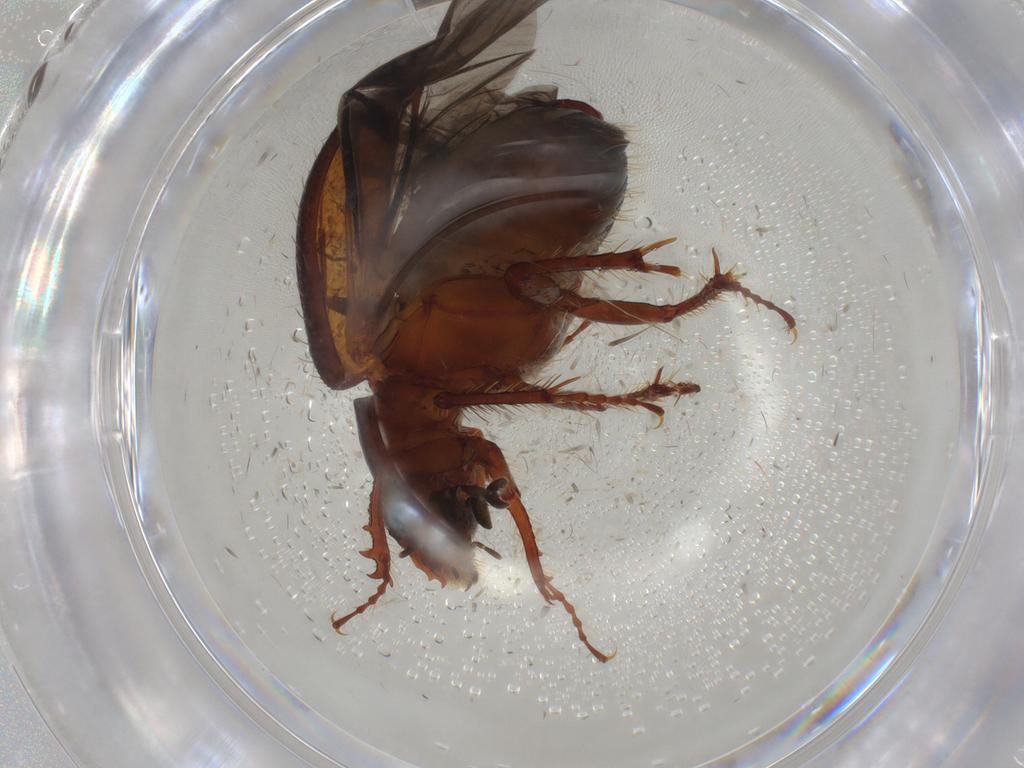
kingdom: Animalia
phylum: Arthropoda
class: Insecta
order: Coleoptera
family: Hybosoridae
